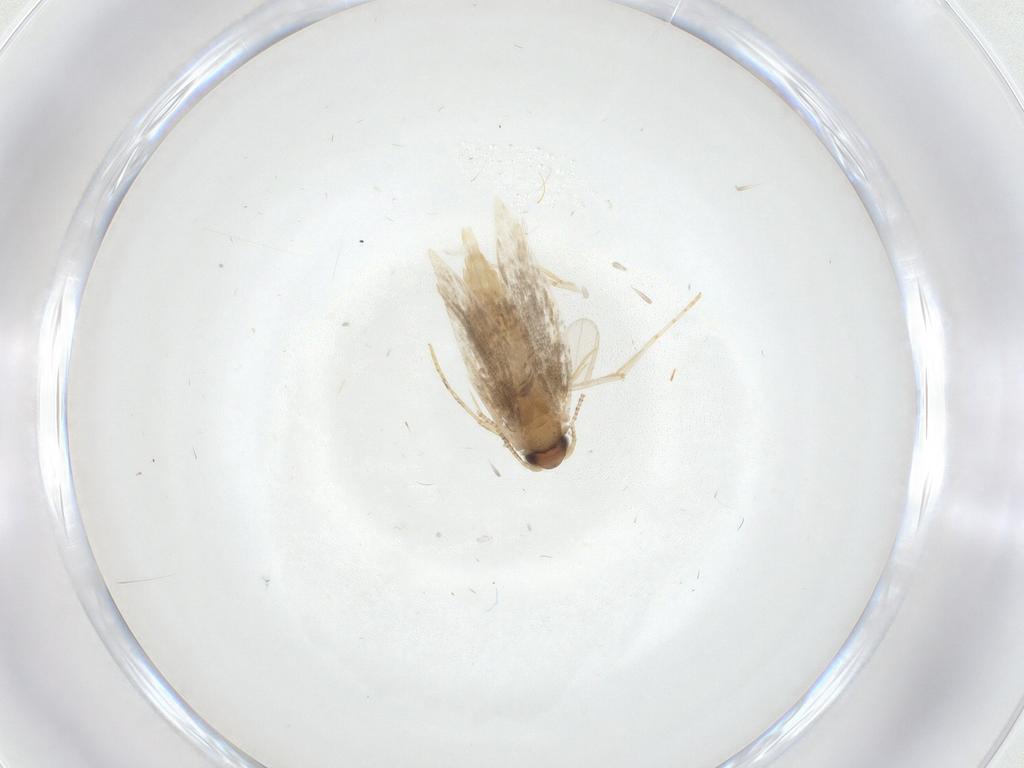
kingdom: Animalia
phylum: Arthropoda
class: Insecta
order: Lepidoptera
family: Tineidae
